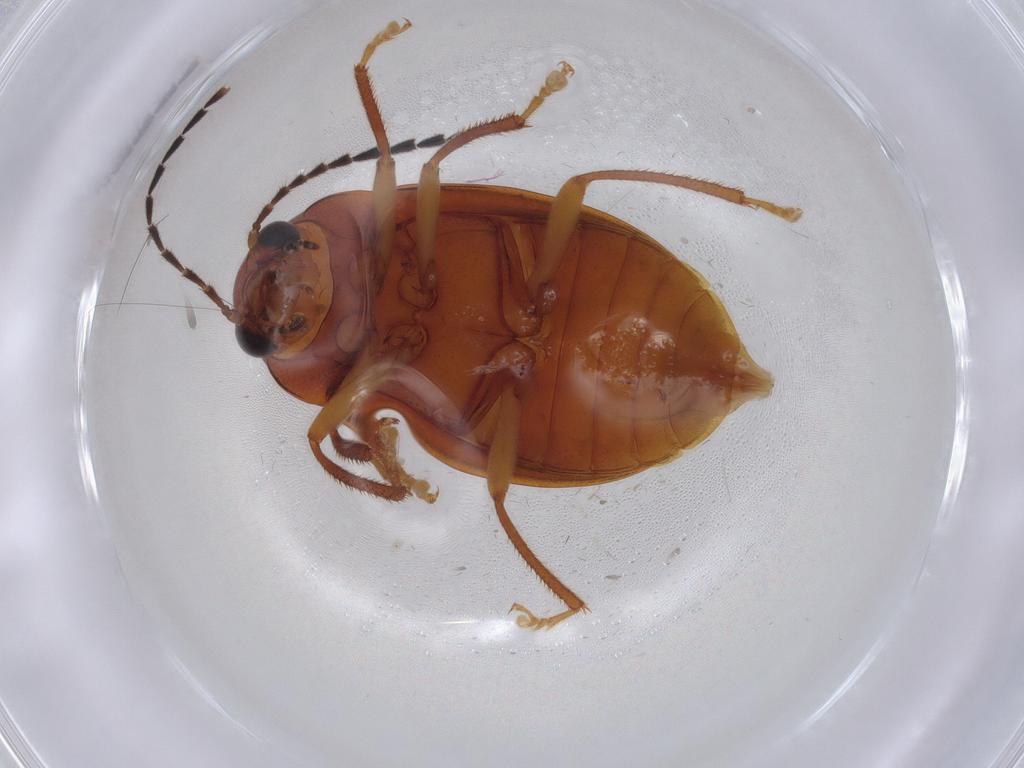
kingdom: Animalia
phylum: Arthropoda
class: Insecta
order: Coleoptera
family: Ptilodactylidae
